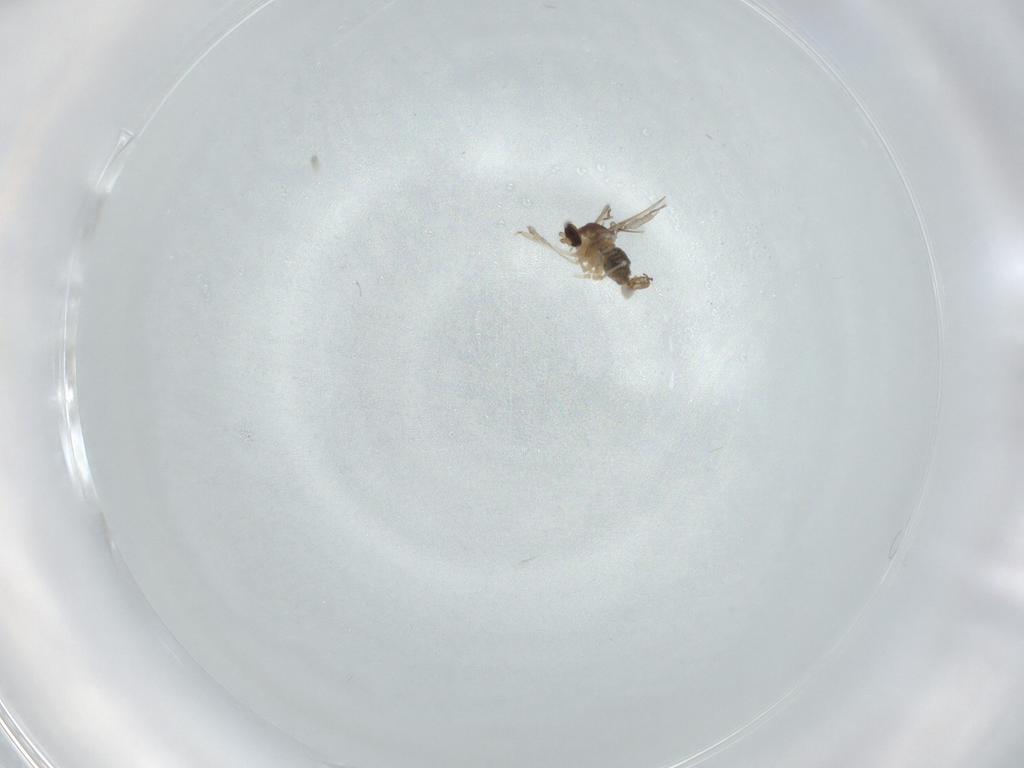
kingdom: Animalia
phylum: Arthropoda
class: Insecta
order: Diptera
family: Cecidomyiidae
